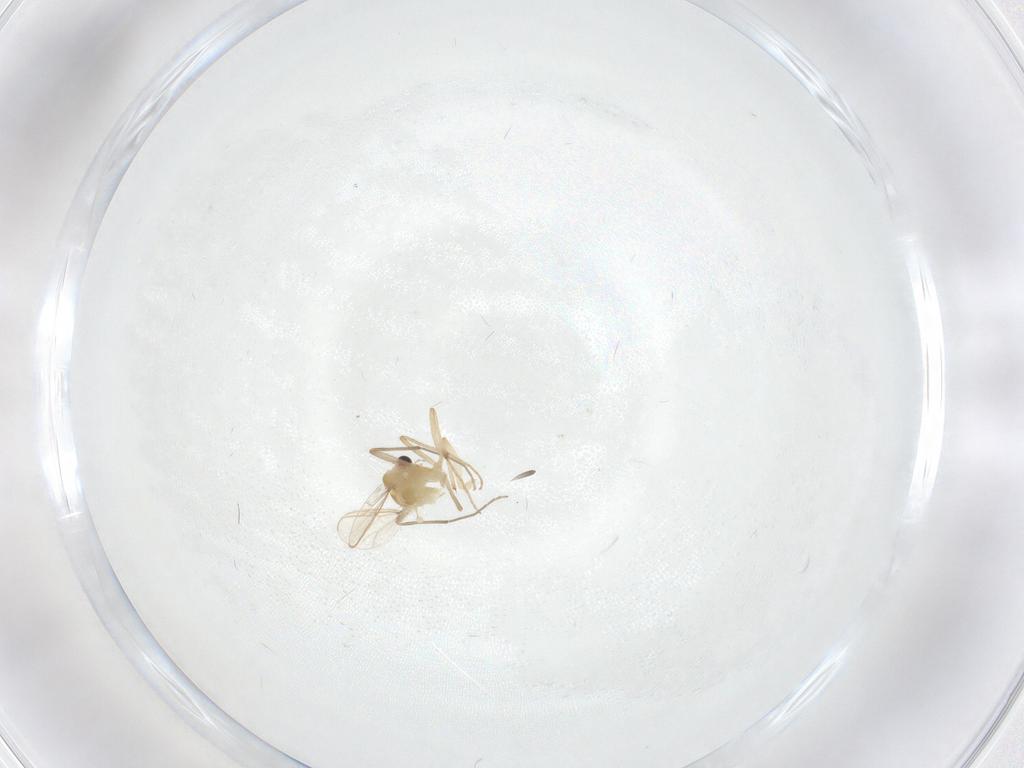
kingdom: Animalia
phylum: Arthropoda
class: Insecta
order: Diptera
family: Chironomidae
